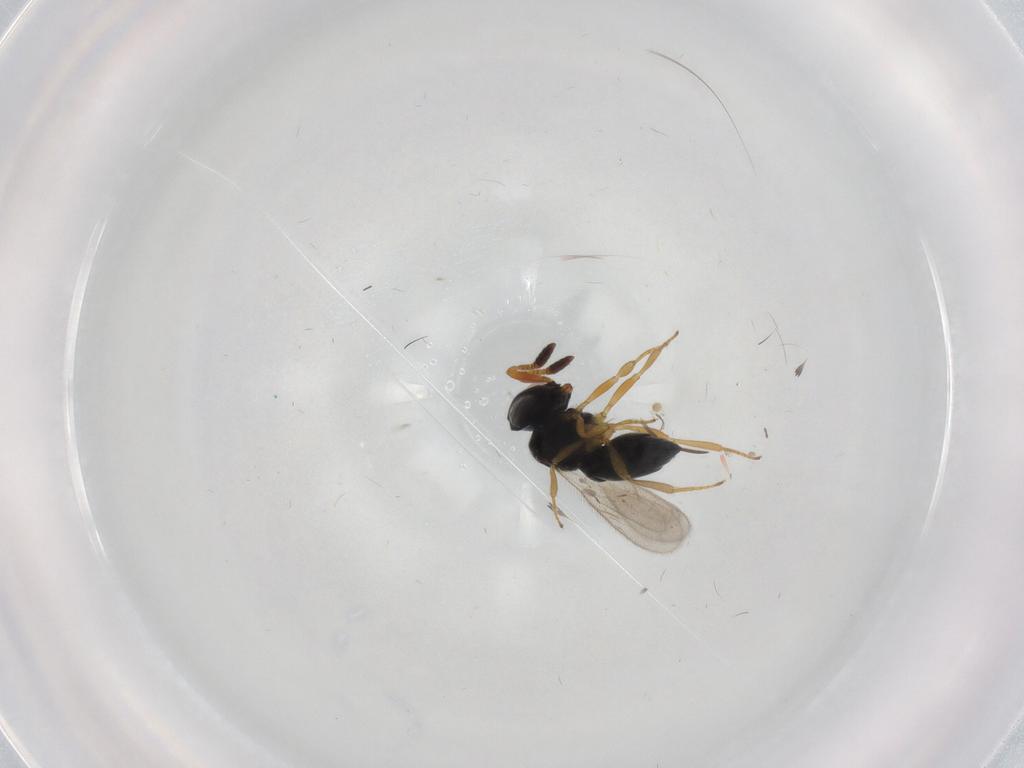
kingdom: Animalia
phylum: Arthropoda
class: Insecta
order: Hymenoptera
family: Scelionidae
